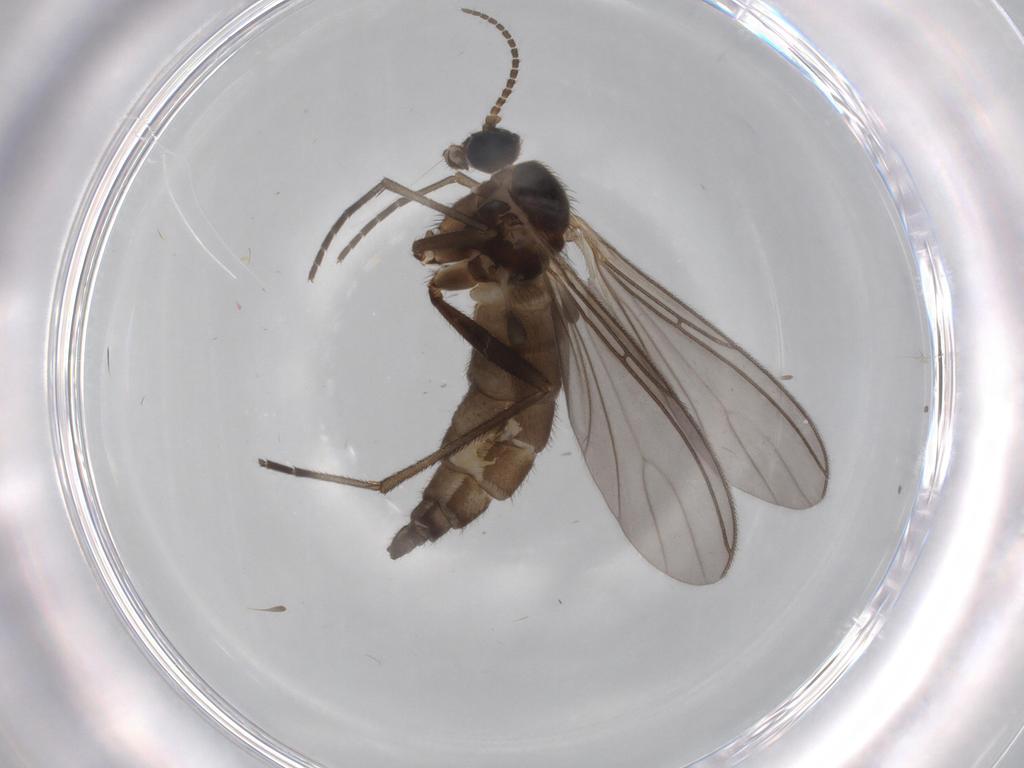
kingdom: Animalia
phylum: Arthropoda
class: Insecta
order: Diptera
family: Sciaridae
